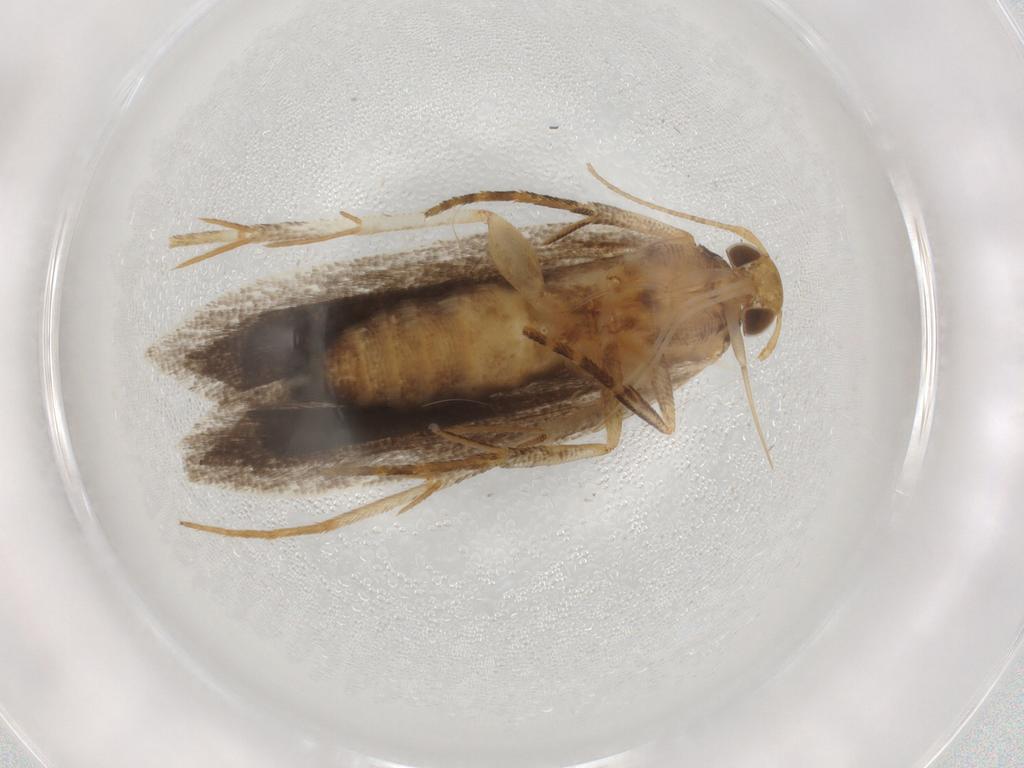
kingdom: Animalia
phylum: Arthropoda
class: Insecta
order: Lepidoptera
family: Gelechiidae
